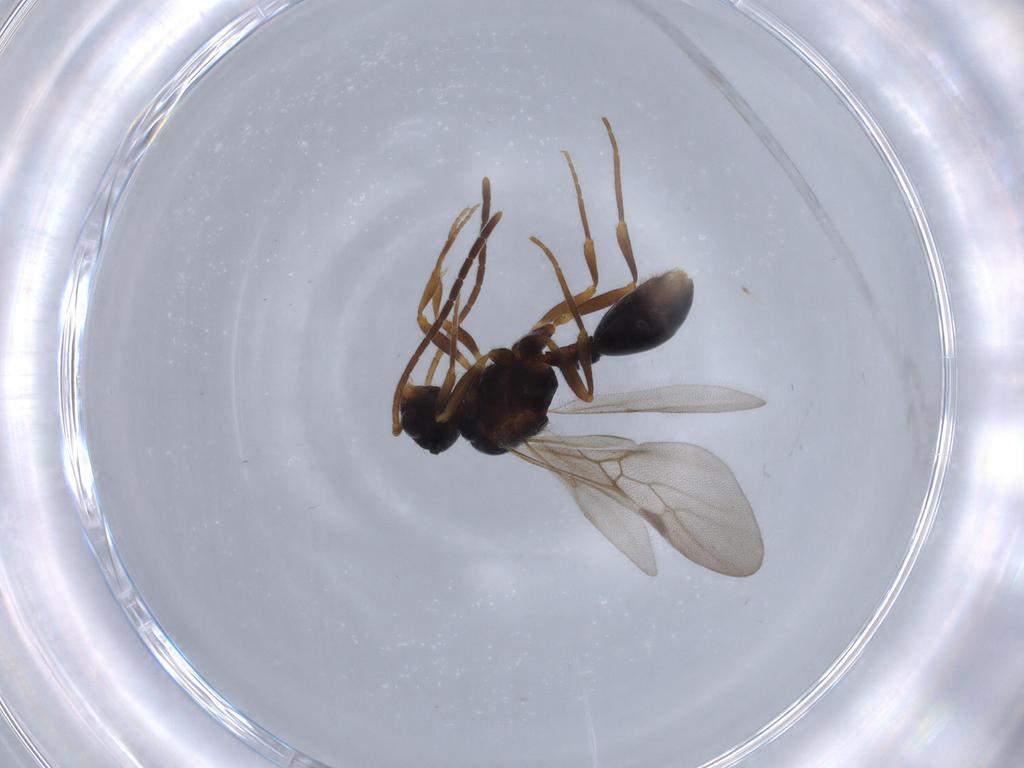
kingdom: Animalia
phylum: Arthropoda
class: Insecta
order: Hymenoptera
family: Formicidae
